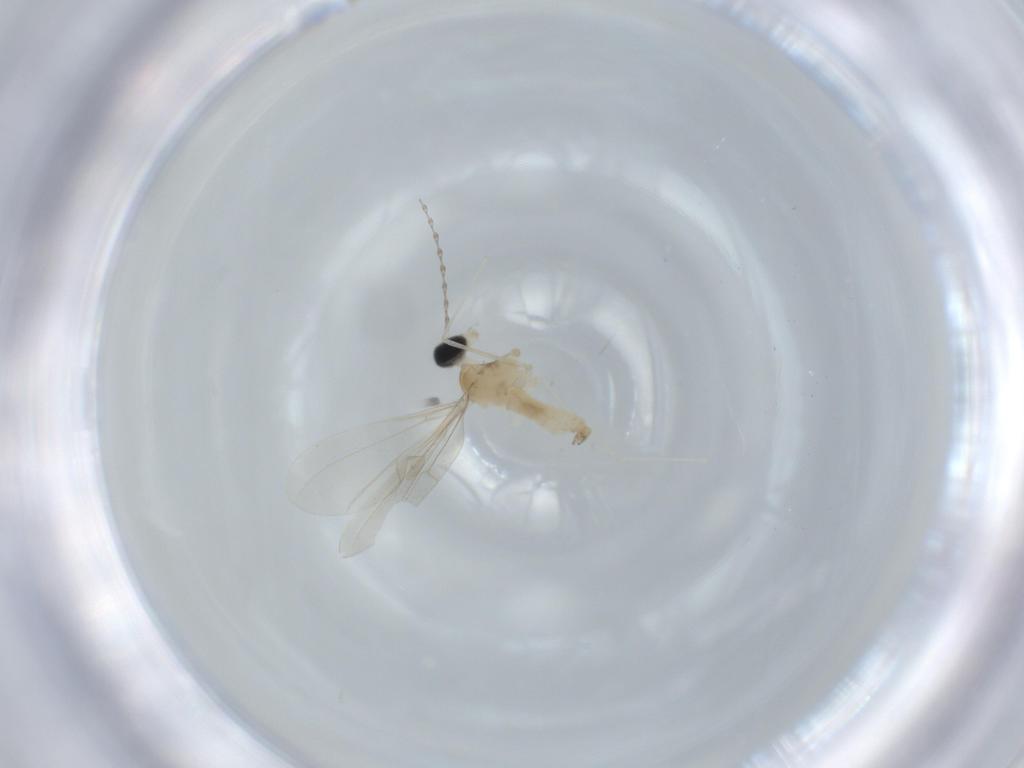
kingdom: Animalia
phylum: Arthropoda
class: Insecta
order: Diptera
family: Cecidomyiidae
